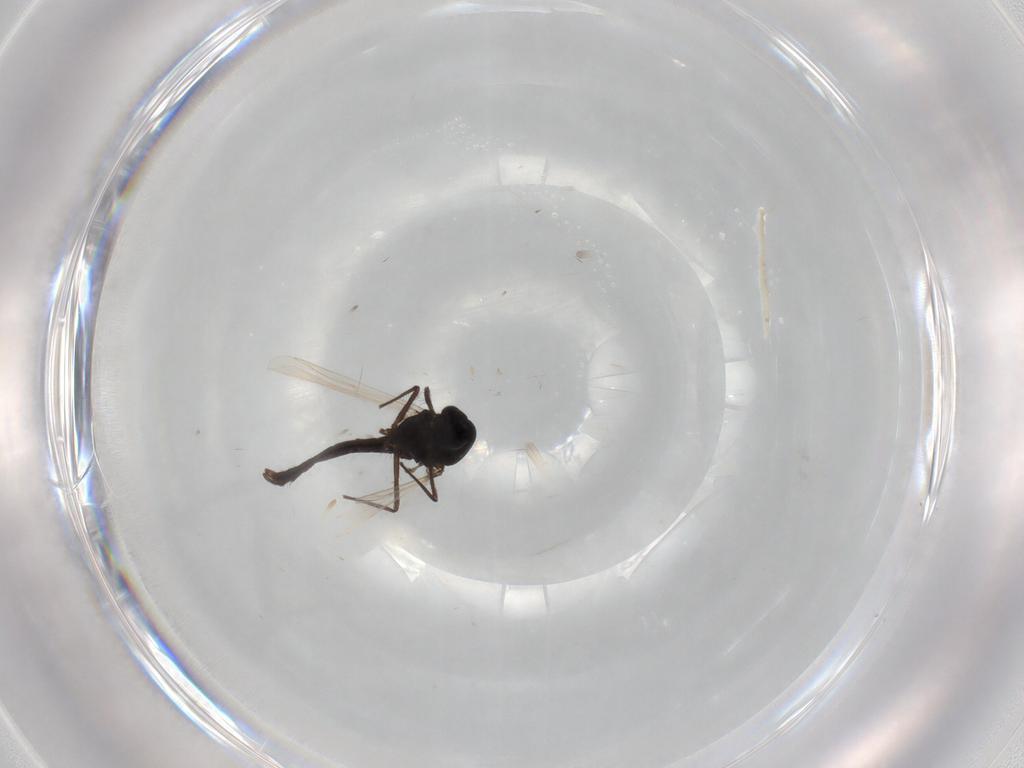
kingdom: Animalia
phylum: Arthropoda
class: Insecta
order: Diptera
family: Chironomidae
